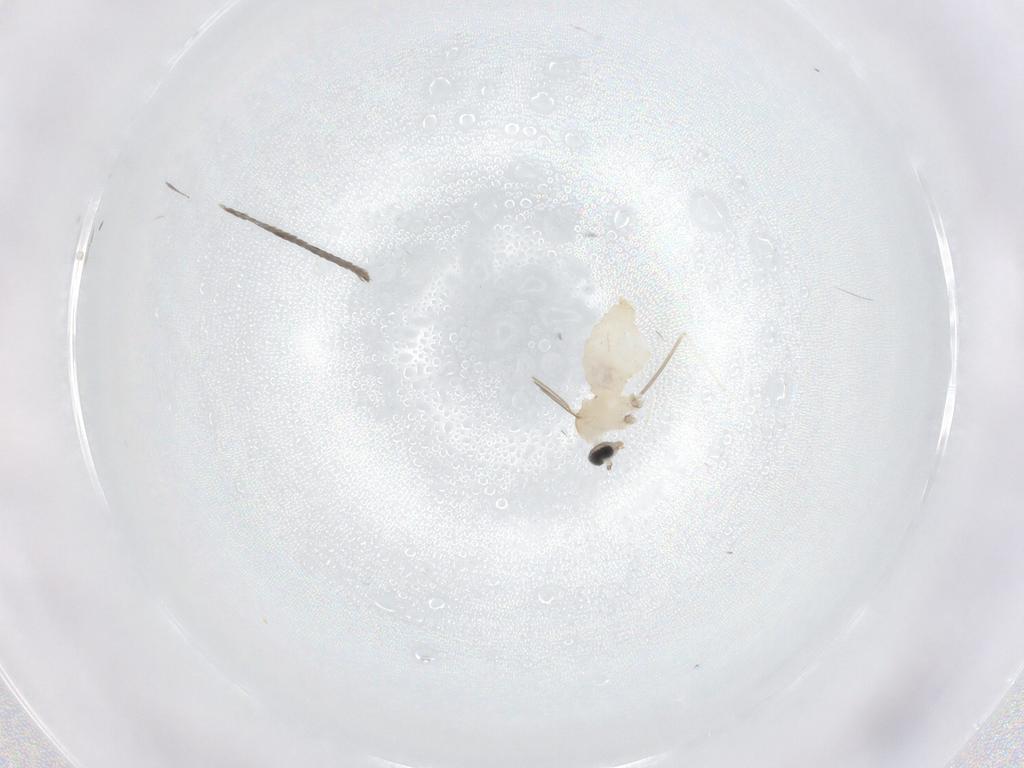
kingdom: Animalia
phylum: Arthropoda
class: Insecta
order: Diptera
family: Cecidomyiidae
